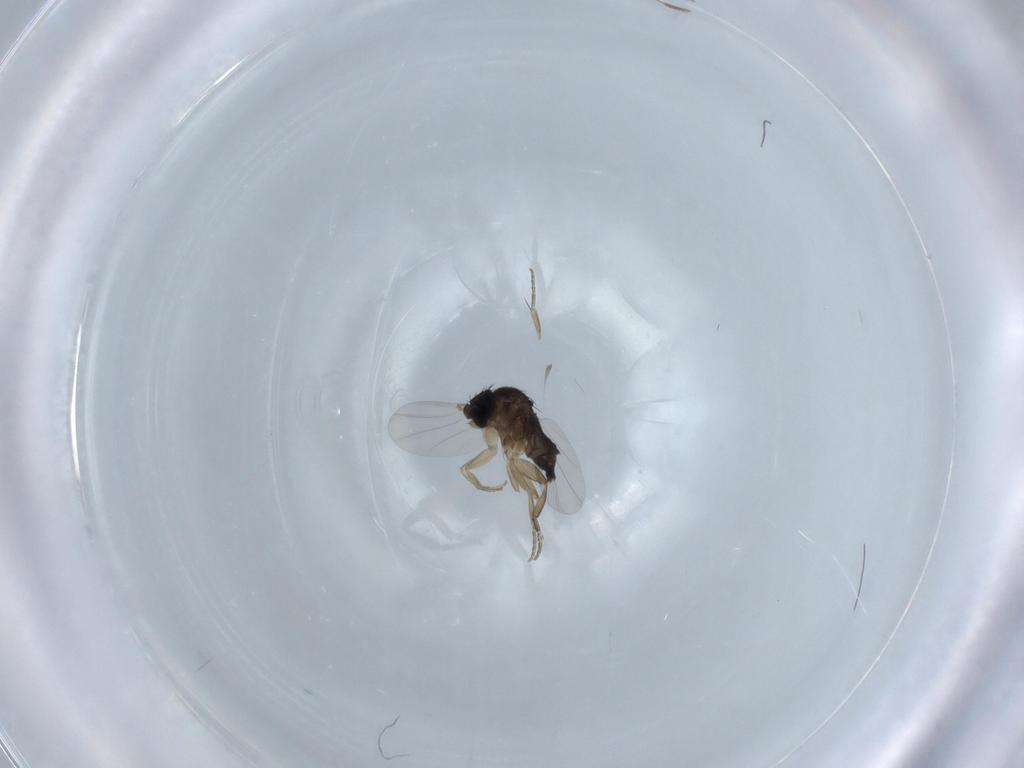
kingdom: Animalia
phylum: Arthropoda
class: Insecta
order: Diptera
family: Phoridae
